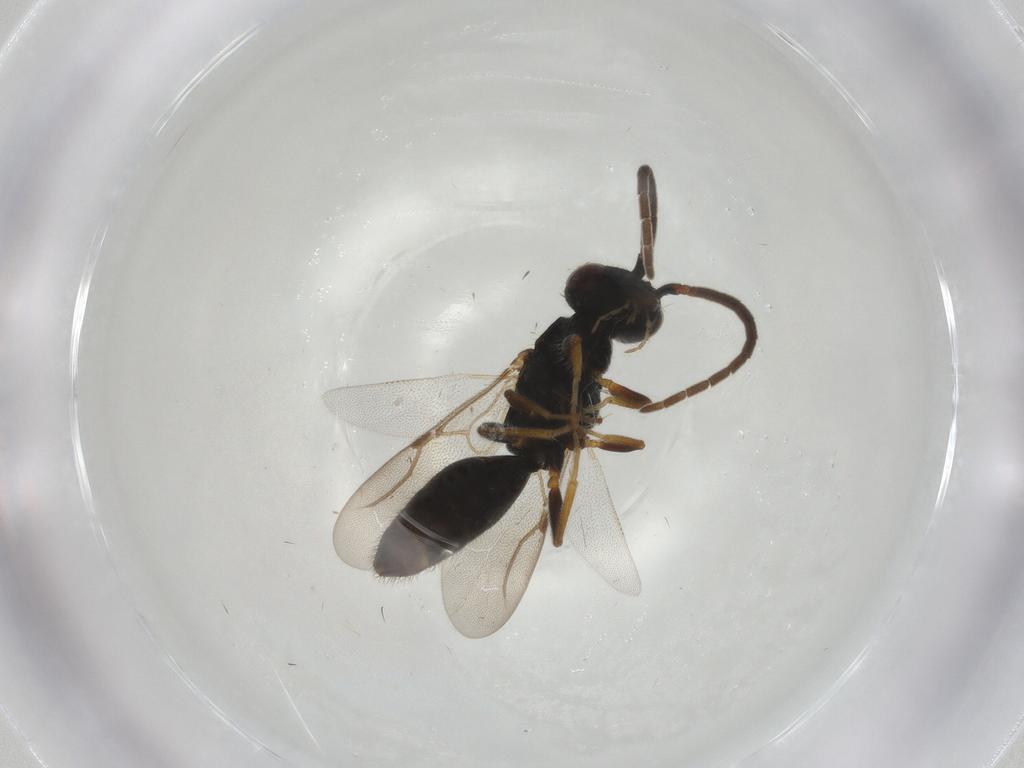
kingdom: Animalia
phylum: Arthropoda
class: Insecta
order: Hymenoptera
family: Bethylidae
